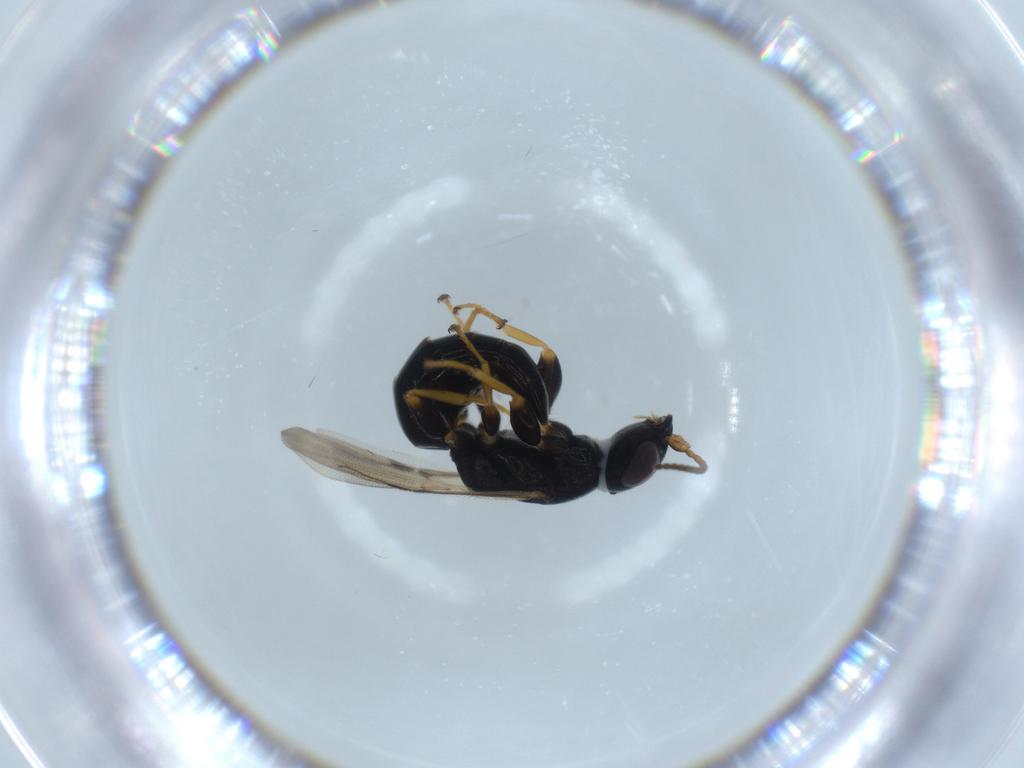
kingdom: Animalia
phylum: Arthropoda
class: Insecta
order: Hymenoptera
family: Bethylidae
